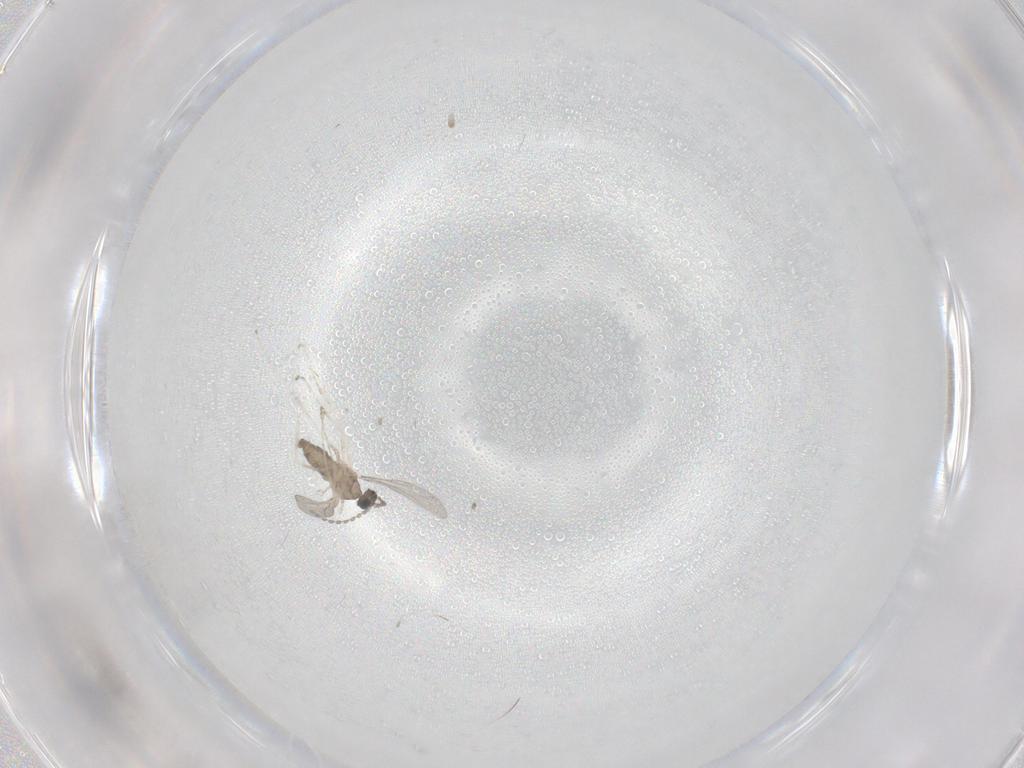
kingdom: Animalia
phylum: Arthropoda
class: Insecta
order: Diptera
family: Cecidomyiidae
